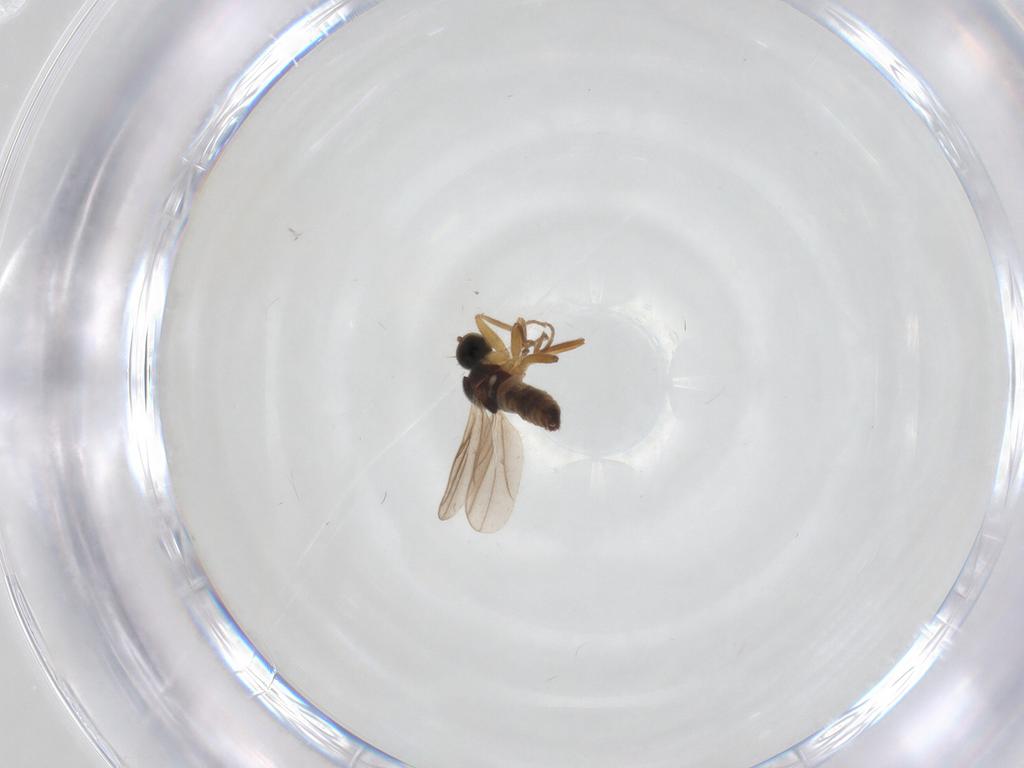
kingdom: Animalia
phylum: Arthropoda
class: Insecta
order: Diptera
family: Hybotidae
